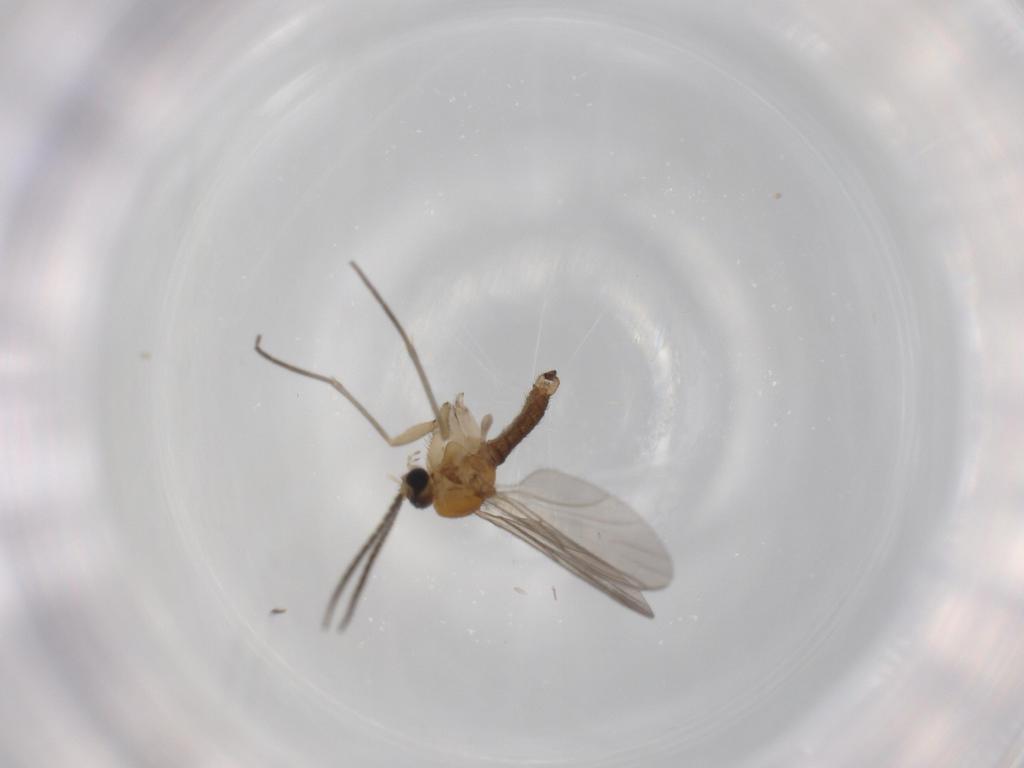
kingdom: Animalia
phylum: Arthropoda
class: Insecta
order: Diptera
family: Sciaridae
